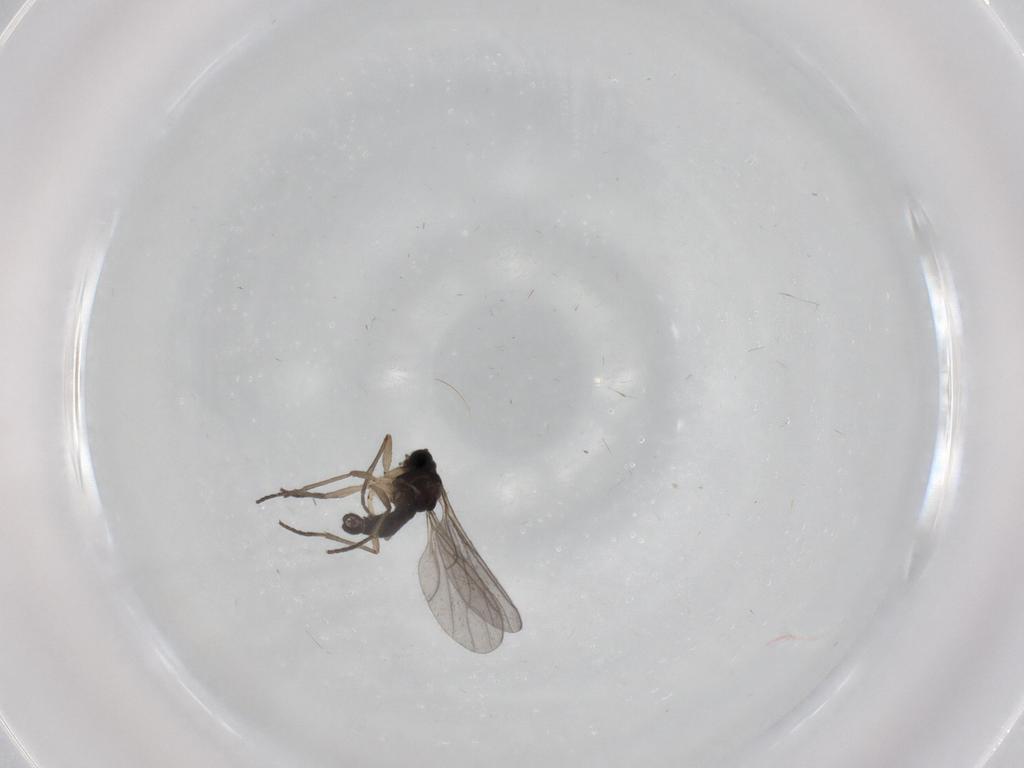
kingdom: Animalia
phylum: Arthropoda
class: Insecta
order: Diptera
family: Sciaridae
